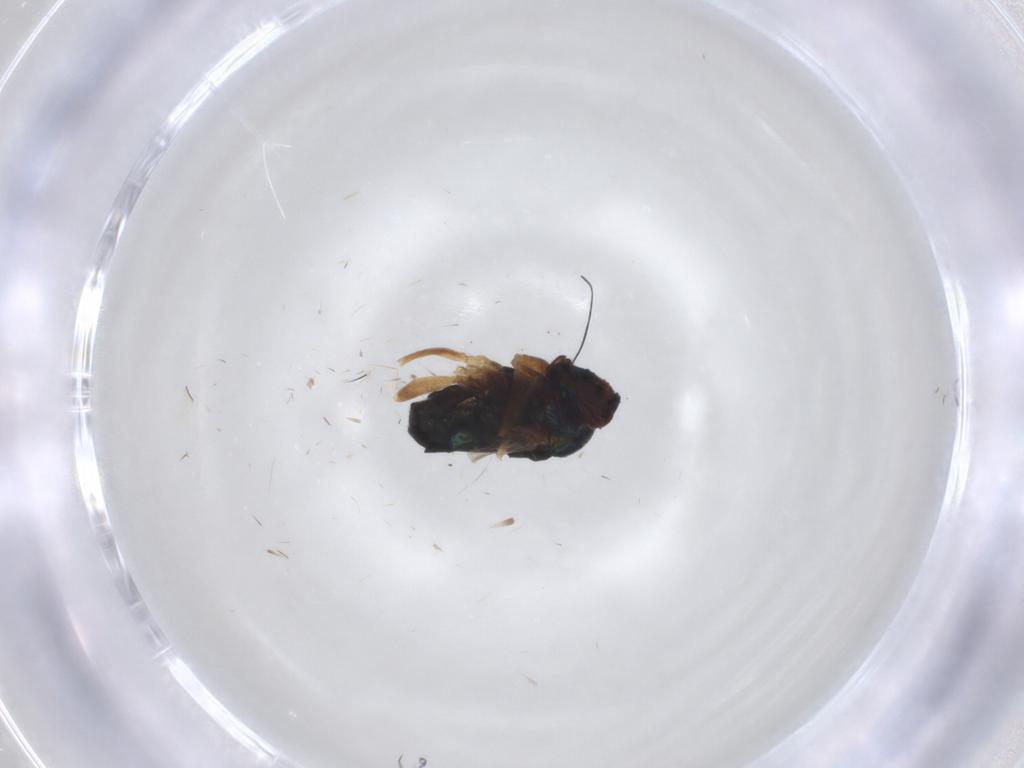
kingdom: Animalia
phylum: Arthropoda
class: Insecta
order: Diptera
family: Dolichopodidae
